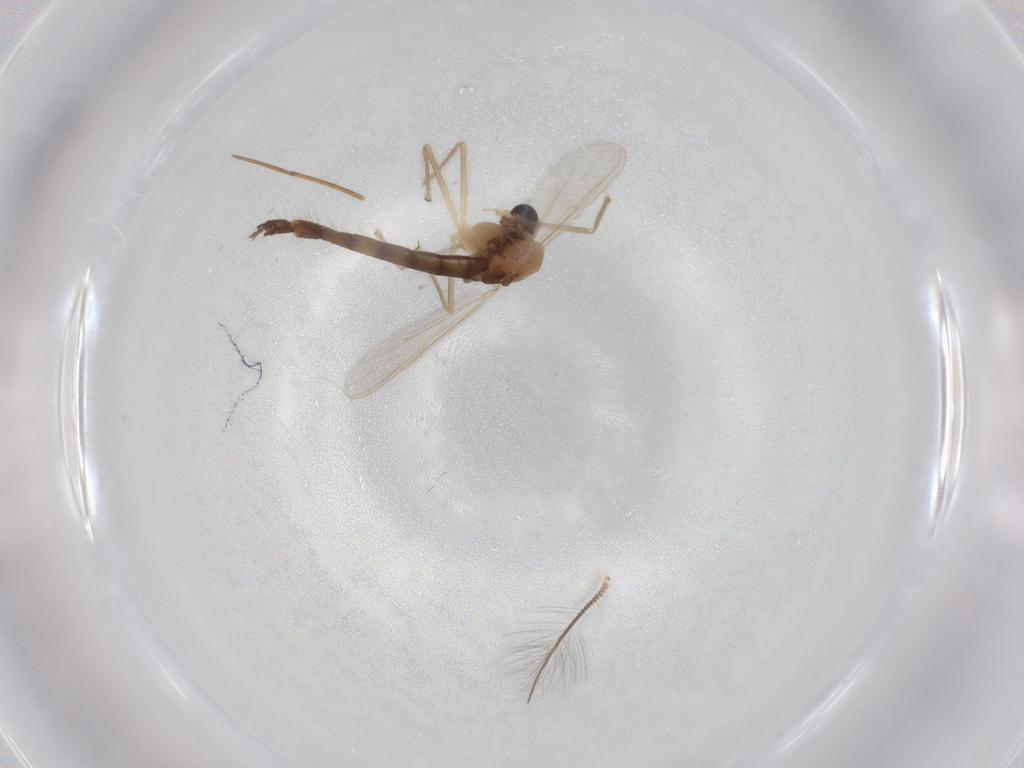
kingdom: Animalia
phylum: Arthropoda
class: Insecta
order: Diptera
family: Chironomidae
